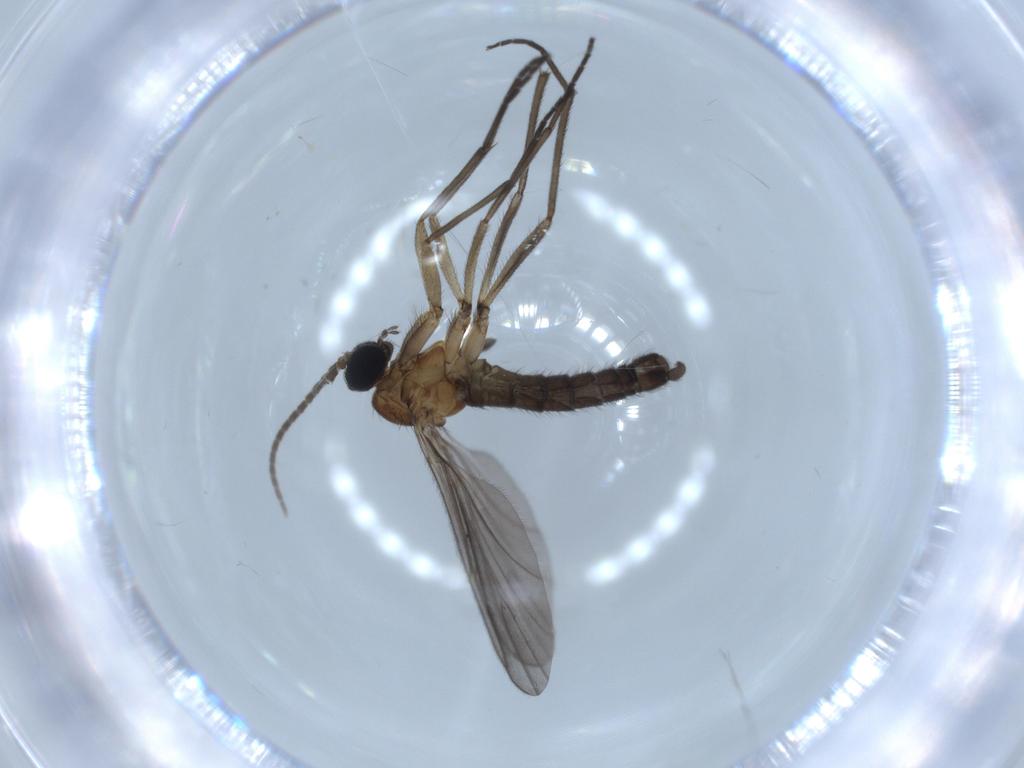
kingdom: Animalia
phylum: Arthropoda
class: Insecta
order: Diptera
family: Sciaridae
